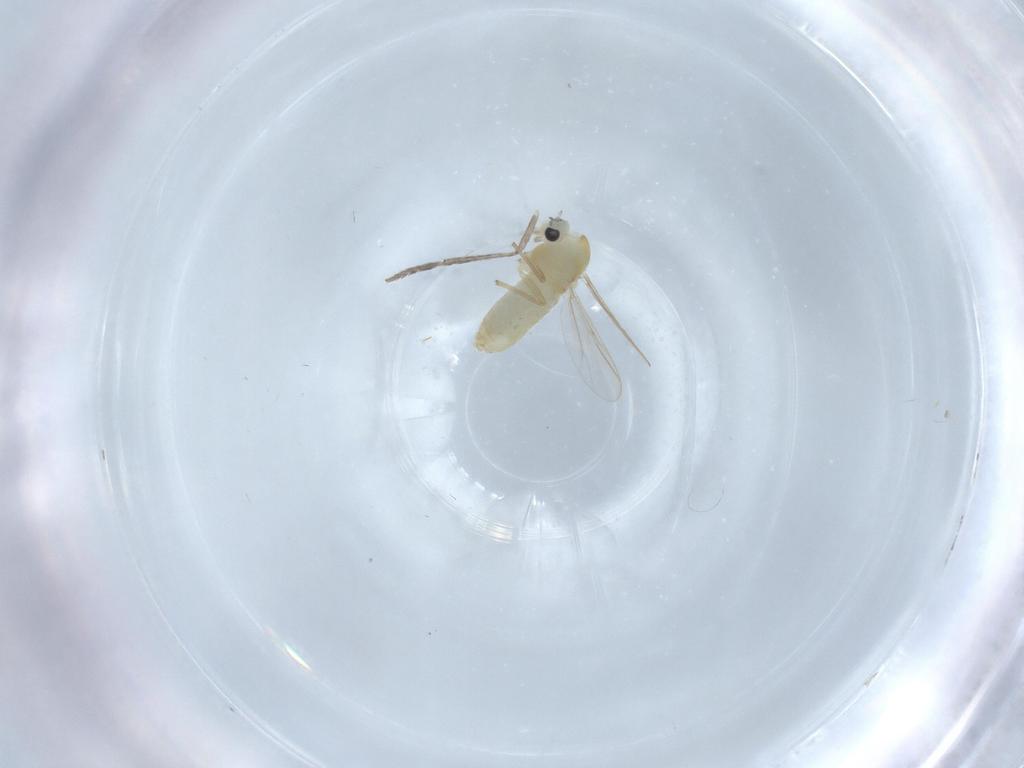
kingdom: Animalia
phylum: Arthropoda
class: Insecta
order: Diptera
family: Chironomidae
